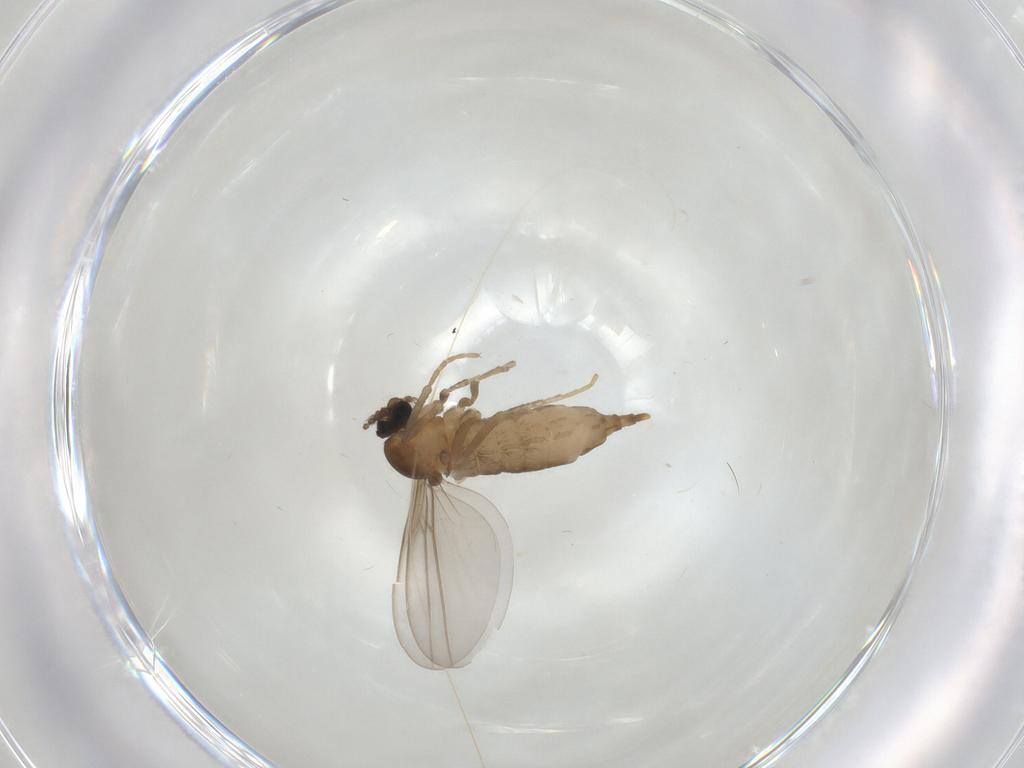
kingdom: Animalia
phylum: Arthropoda
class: Insecta
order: Diptera
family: Cecidomyiidae
